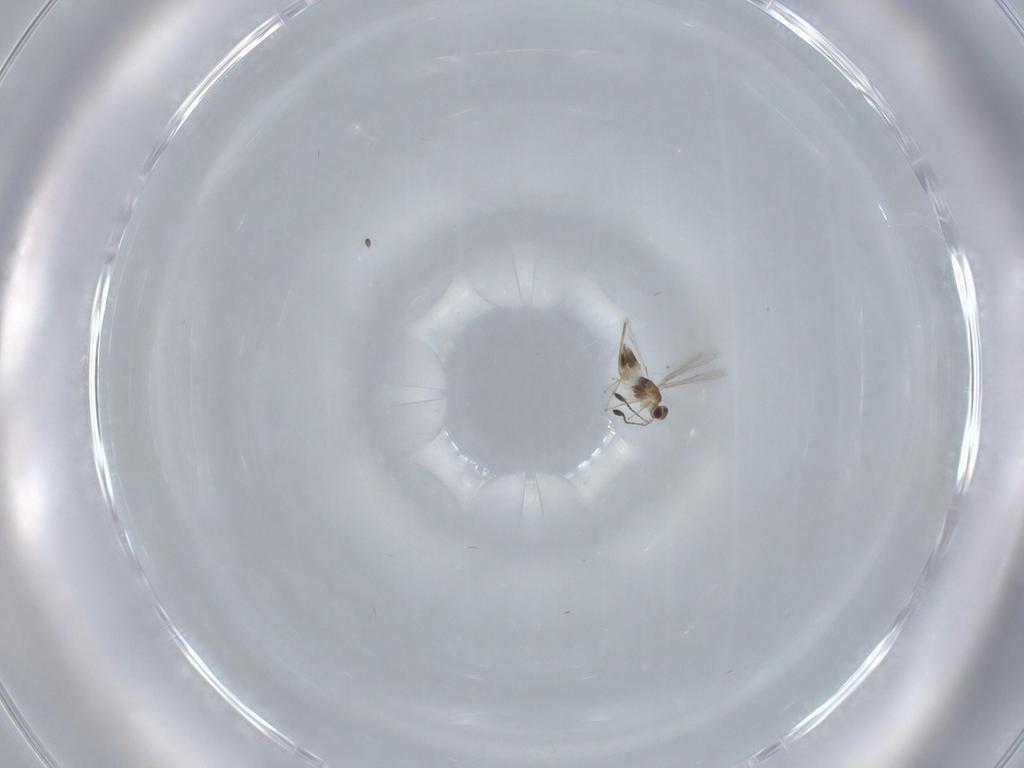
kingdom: Animalia
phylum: Arthropoda
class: Insecta
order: Hymenoptera
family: Mymaridae
